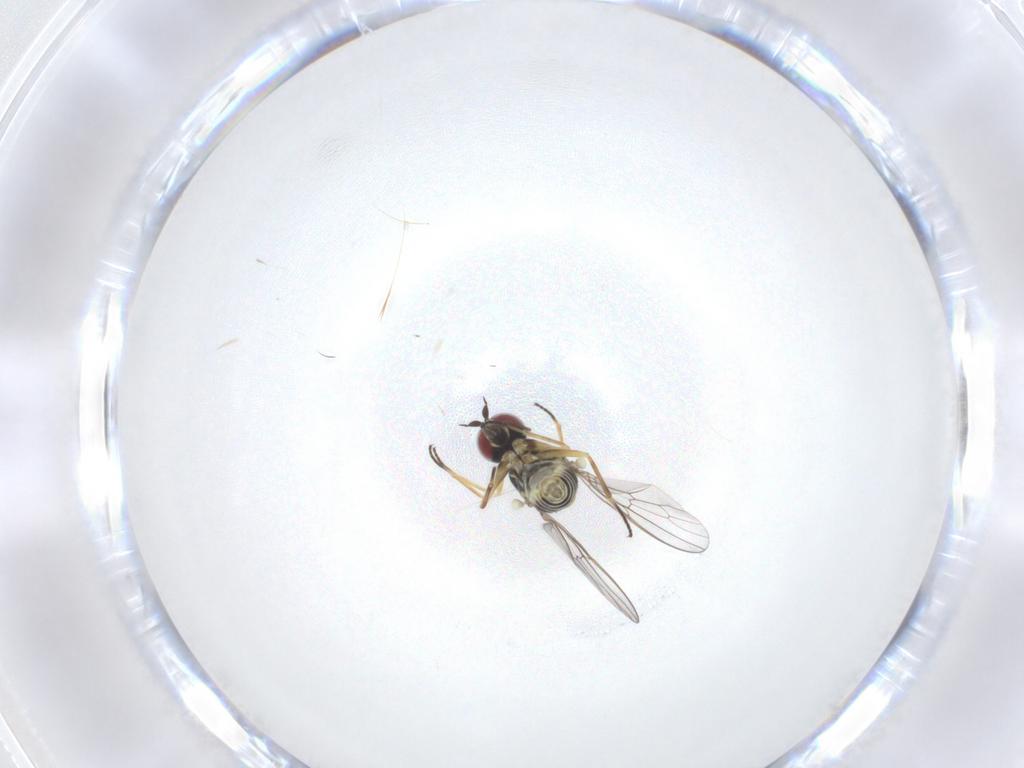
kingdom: Animalia
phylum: Arthropoda
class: Insecta
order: Diptera
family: Bombyliidae
